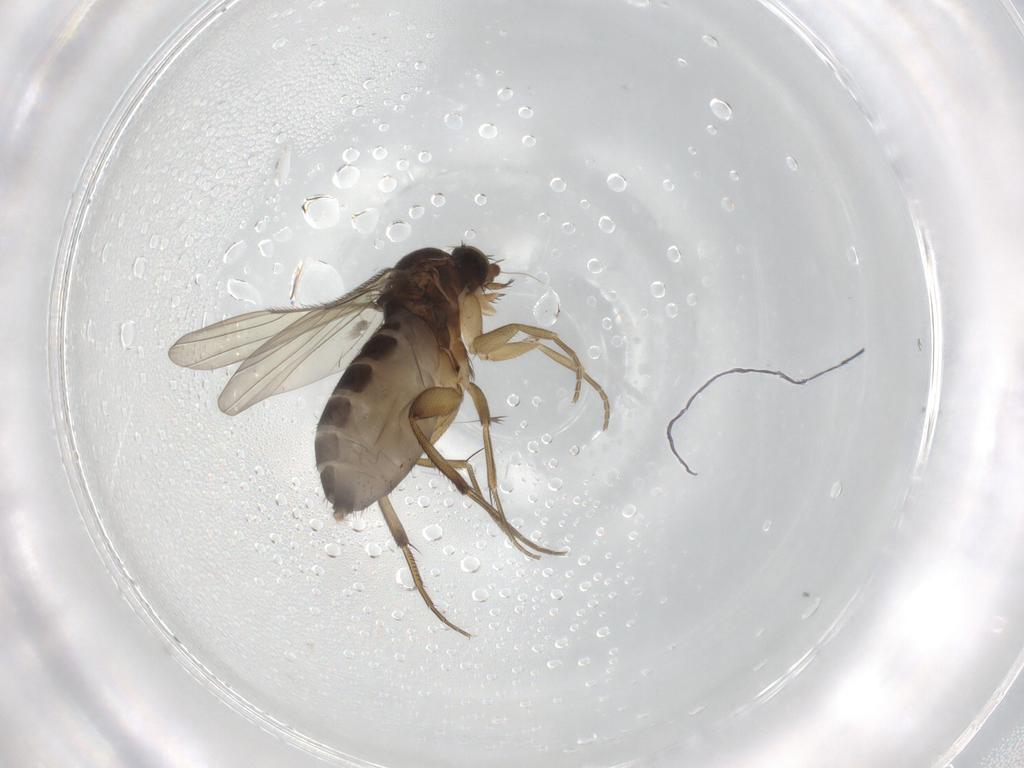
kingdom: Animalia
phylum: Arthropoda
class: Insecta
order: Diptera
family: Phoridae
